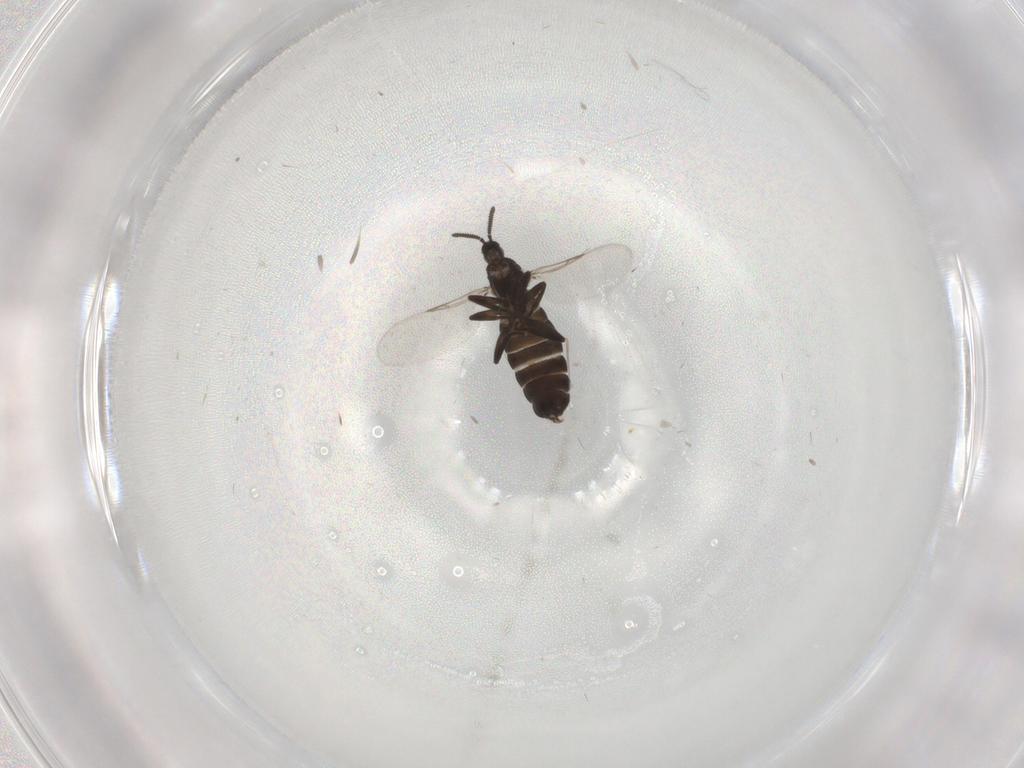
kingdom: Animalia
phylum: Arthropoda
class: Insecta
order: Diptera
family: Scatopsidae
